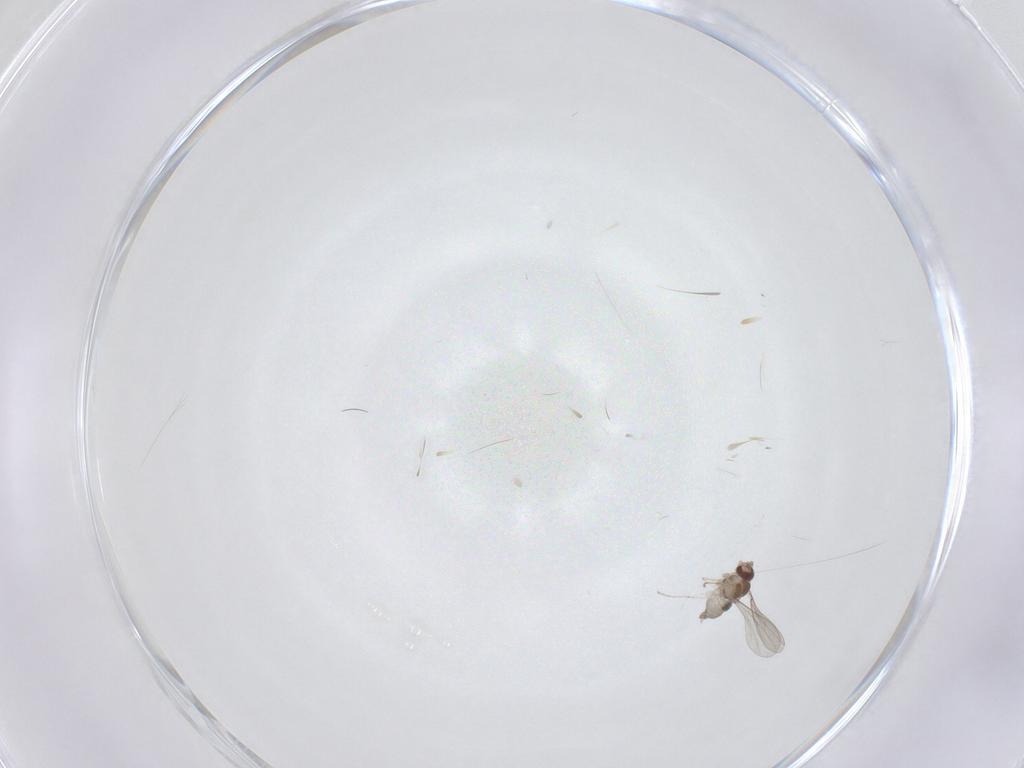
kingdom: Animalia
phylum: Arthropoda
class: Insecta
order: Diptera
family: Cecidomyiidae
